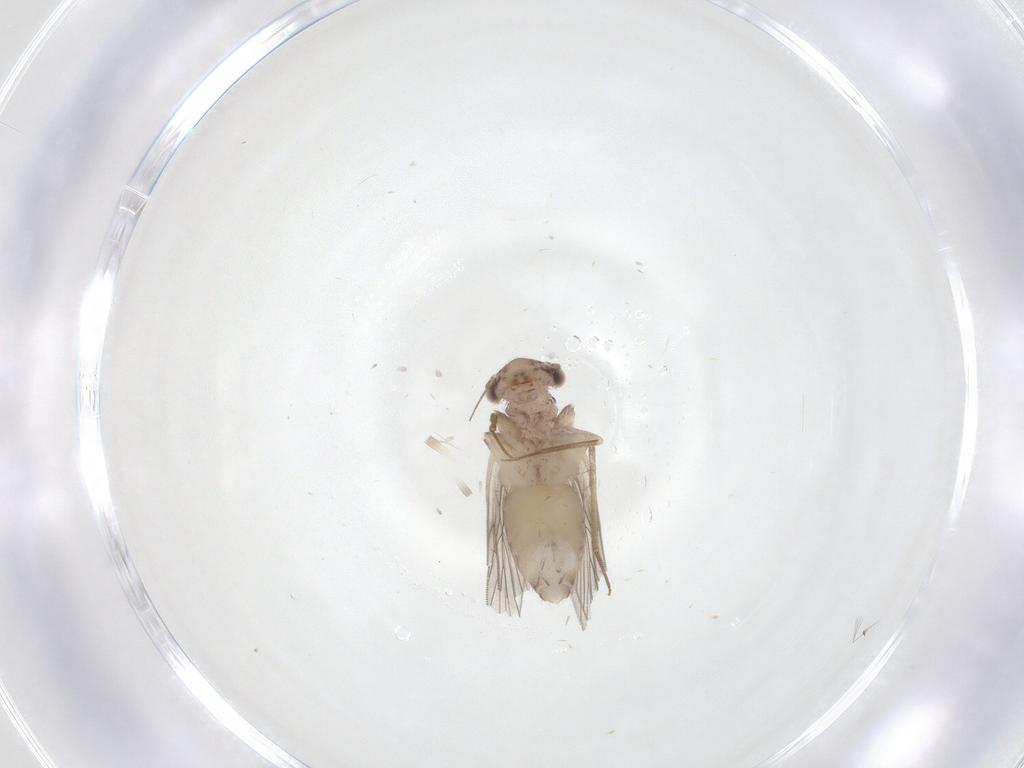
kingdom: Animalia
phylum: Arthropoda
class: Insecta
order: Psocodea
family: Lepidopsocidae
